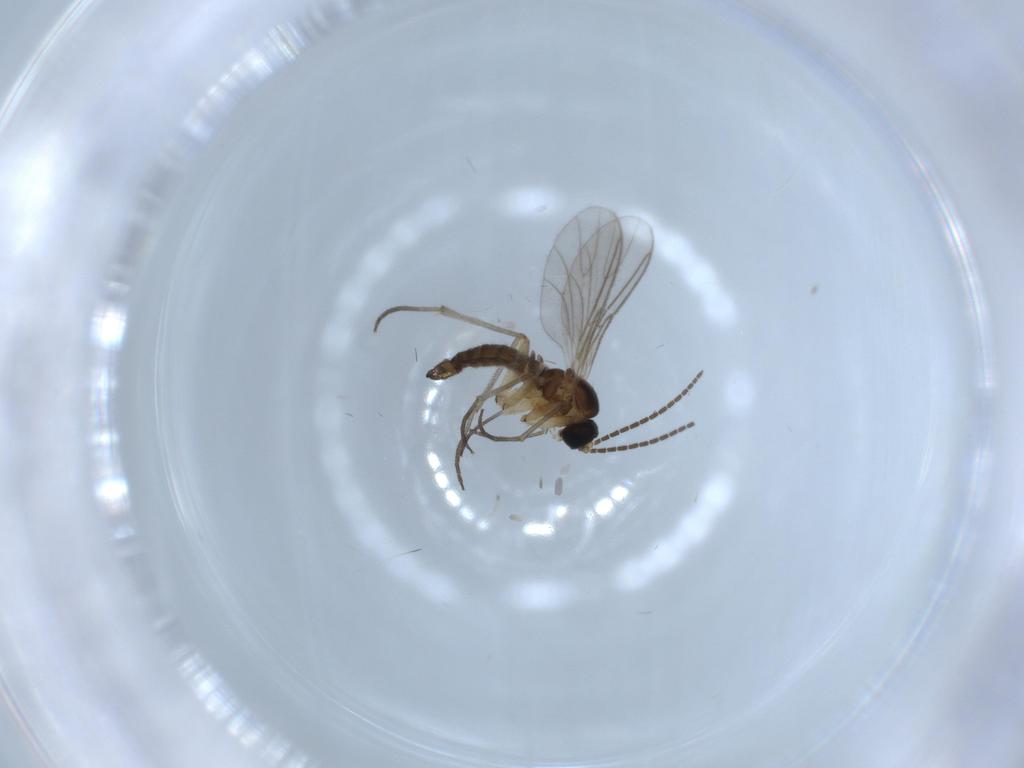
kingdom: Animalia
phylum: Arthropoda
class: Insecta
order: Diptera
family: Sciaridae
